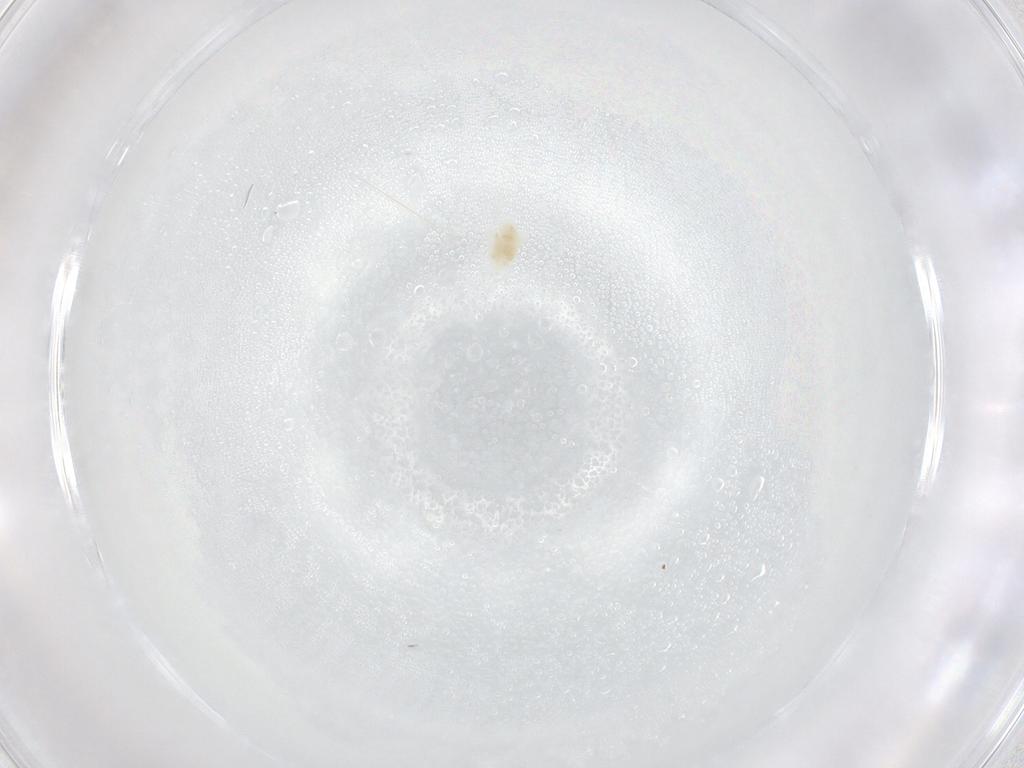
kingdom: Animalia
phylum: Arthropoda
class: Arachnida
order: Trombidiformes
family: Eupodidae
